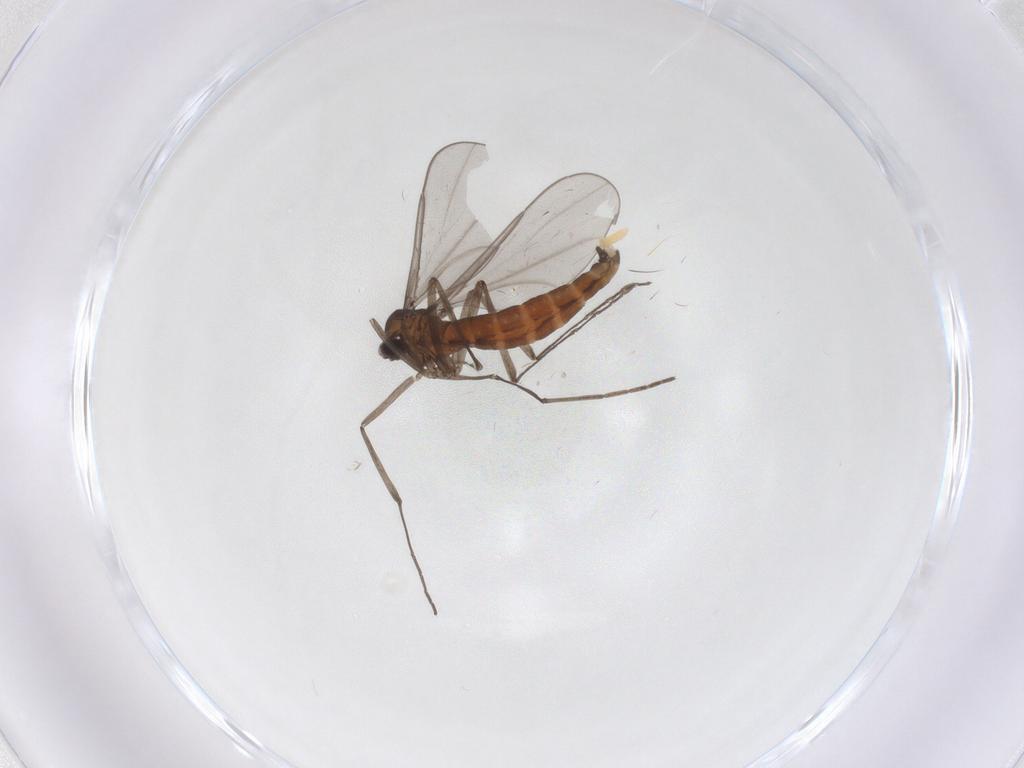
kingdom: Animalia
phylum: Arthropoda
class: Insecta
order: Diptera
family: Cecidomyiidae
